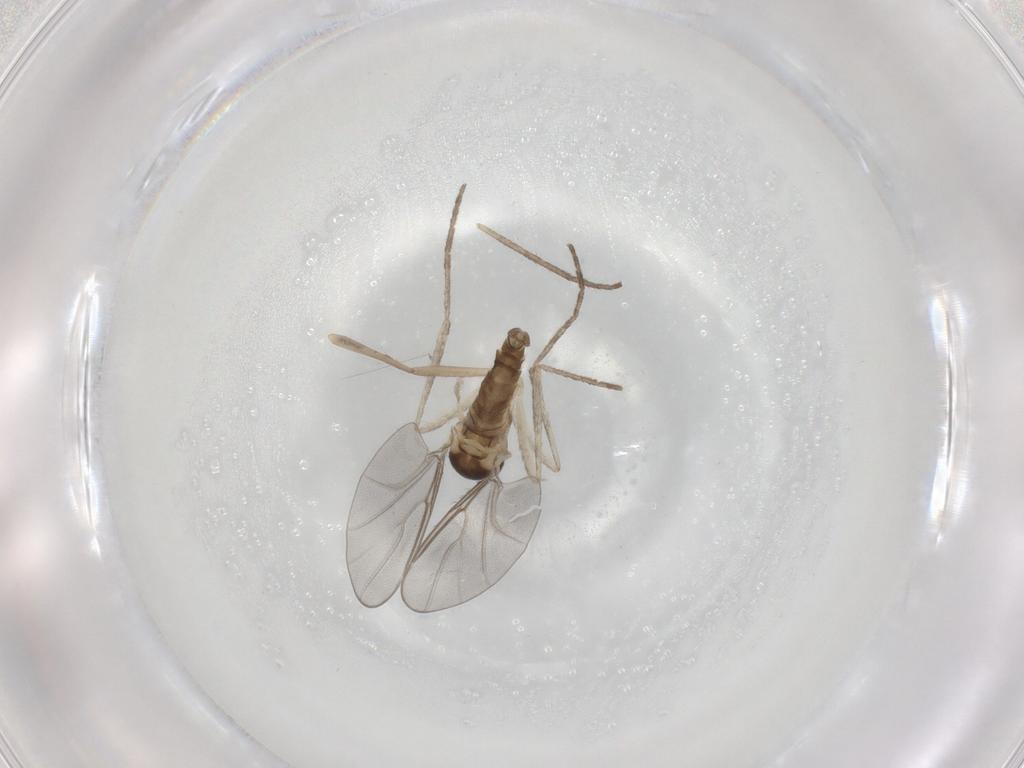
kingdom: Animalia
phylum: Arthropoda
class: Insecta
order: Diptera
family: Cecidomyiidae
